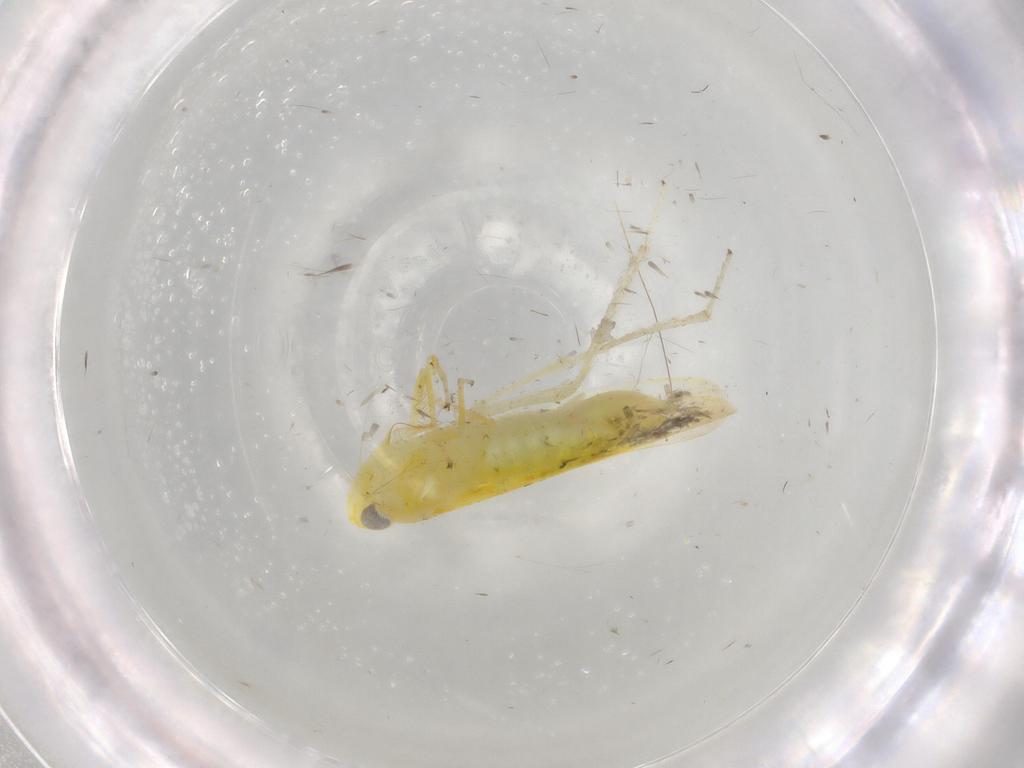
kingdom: Animalia
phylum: Arthropoda
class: Insecta
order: Hemiptera
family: Cicadellidae
